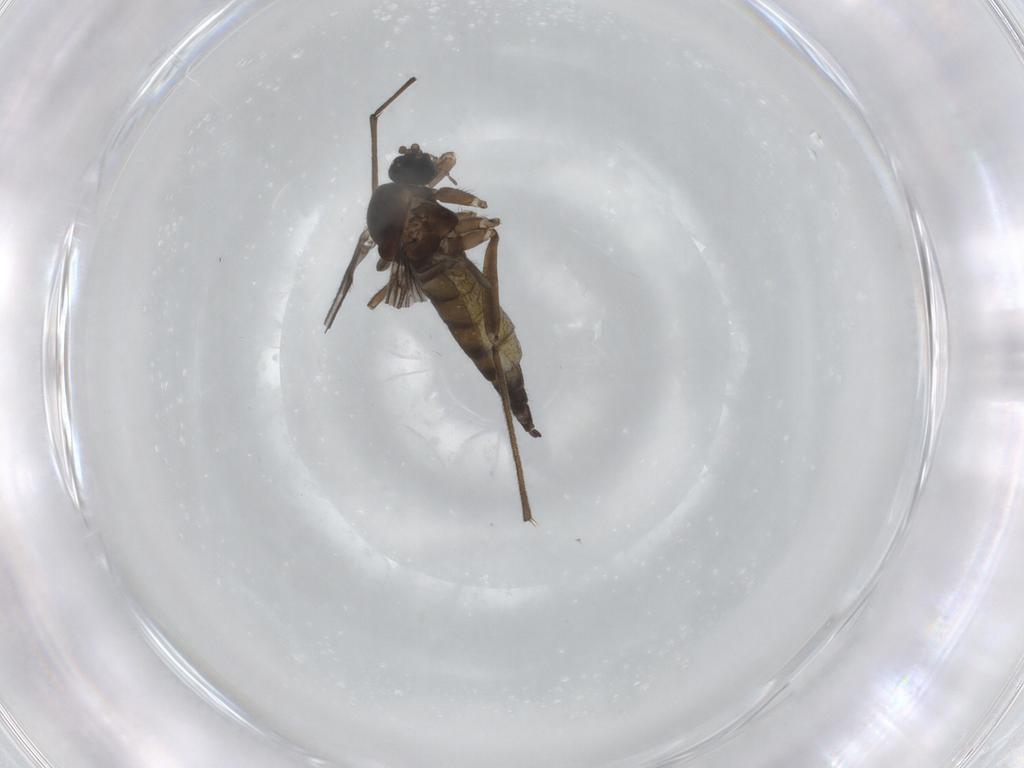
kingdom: Animalia
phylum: Arthropoda
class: Insecta
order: Diptera
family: Sciaridae
